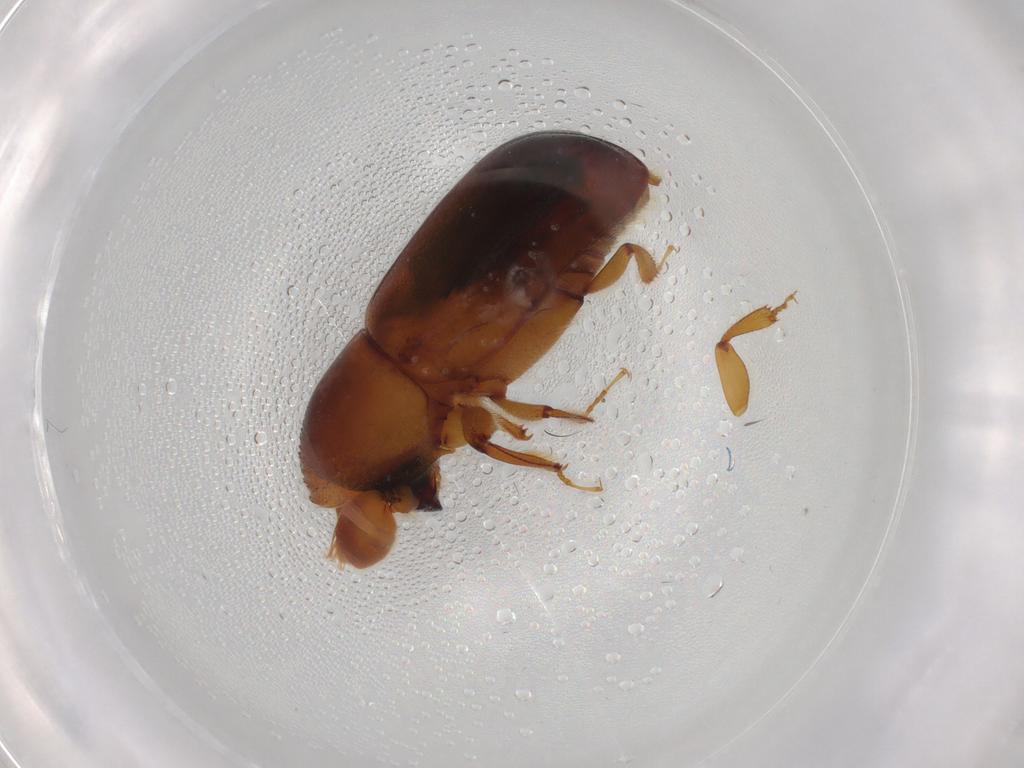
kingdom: Animalia
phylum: Arthropoda
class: Insecta
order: Coleoptera
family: Curculionidae
